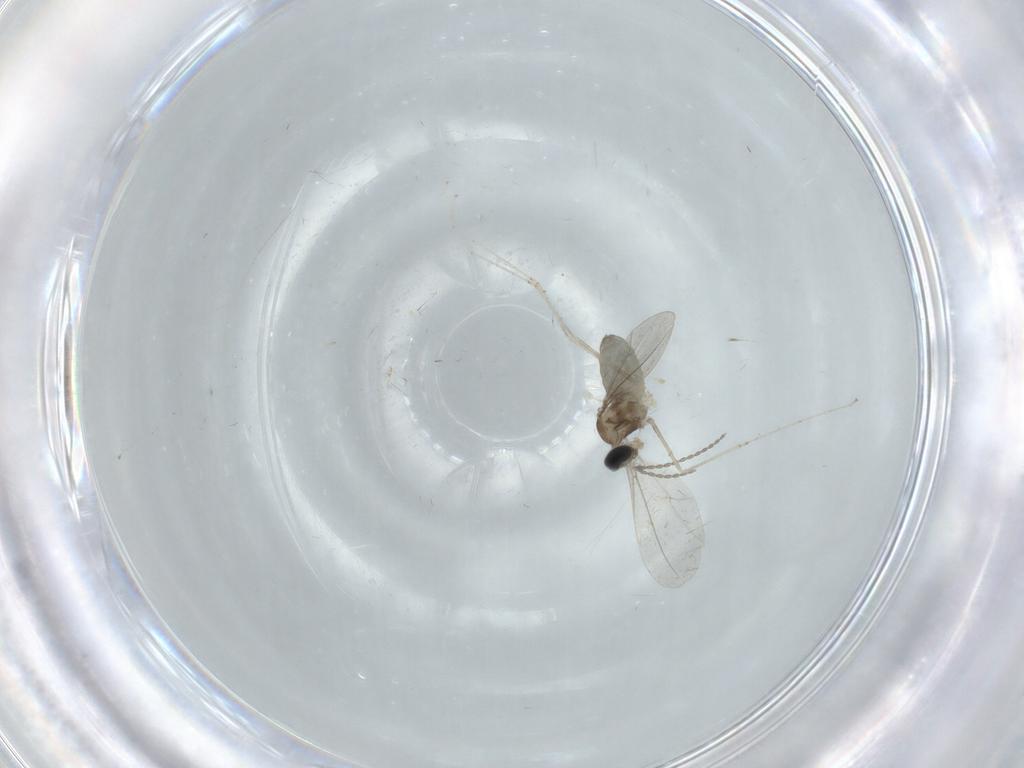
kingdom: Animalia
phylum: Arthropoda
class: Insecta
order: Diptera
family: Cecidomyiidae
